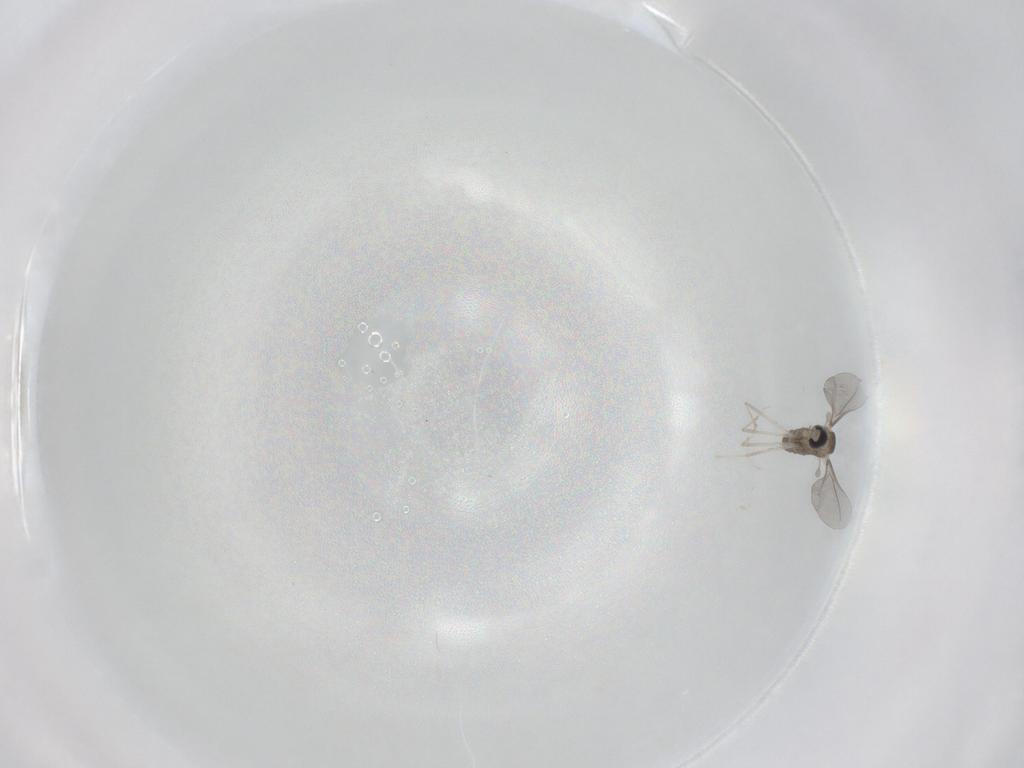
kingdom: Animalia
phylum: Arthropoda
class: Insecta
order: Diptera
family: Cecidomyiidae
